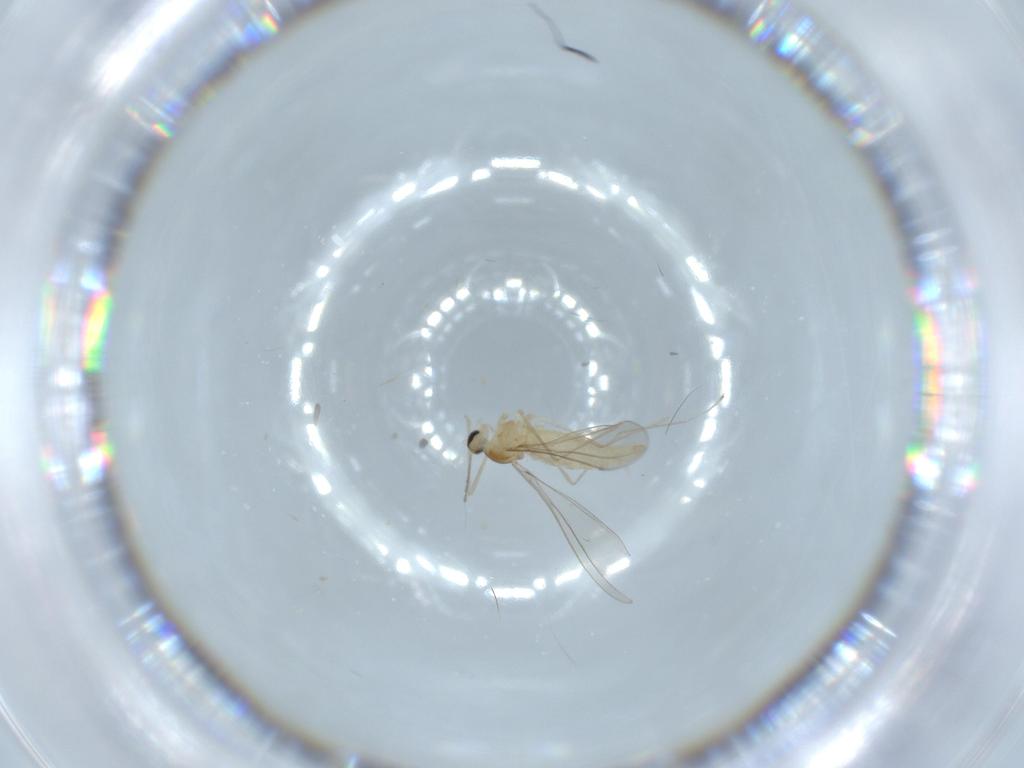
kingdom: Animalia
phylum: Arthropoda
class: Insecta
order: Diptera
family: Cecidomyiidae
